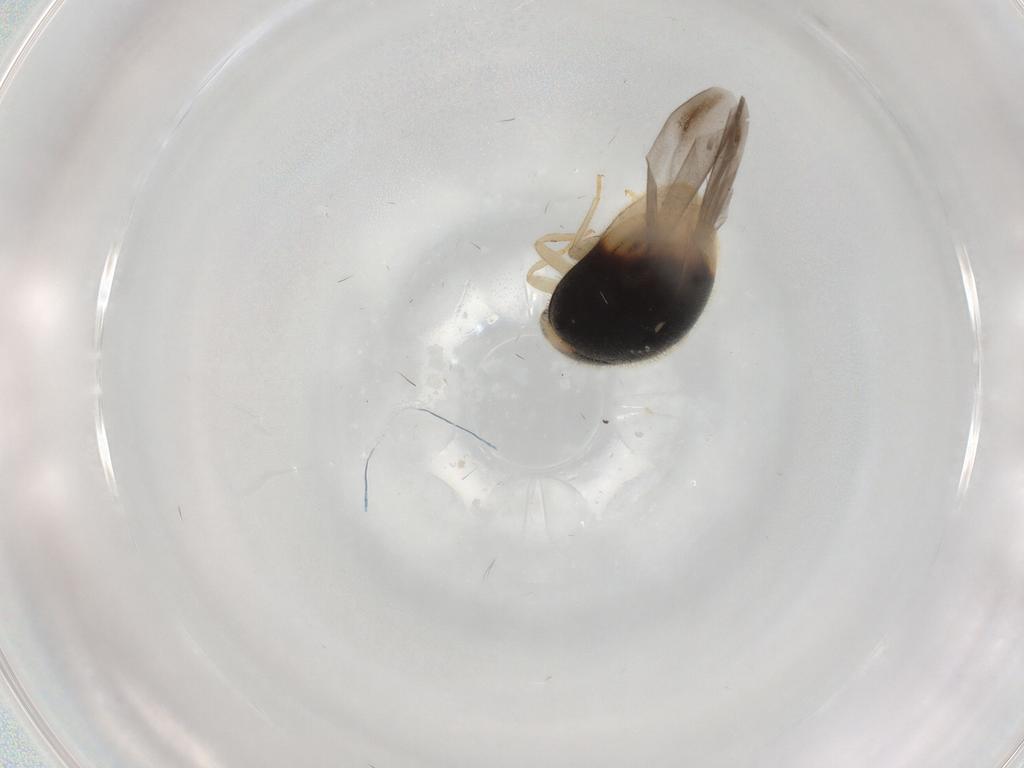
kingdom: Animalia
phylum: Arthropoda
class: Insecta
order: Coleoptera
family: Coccinellidae
